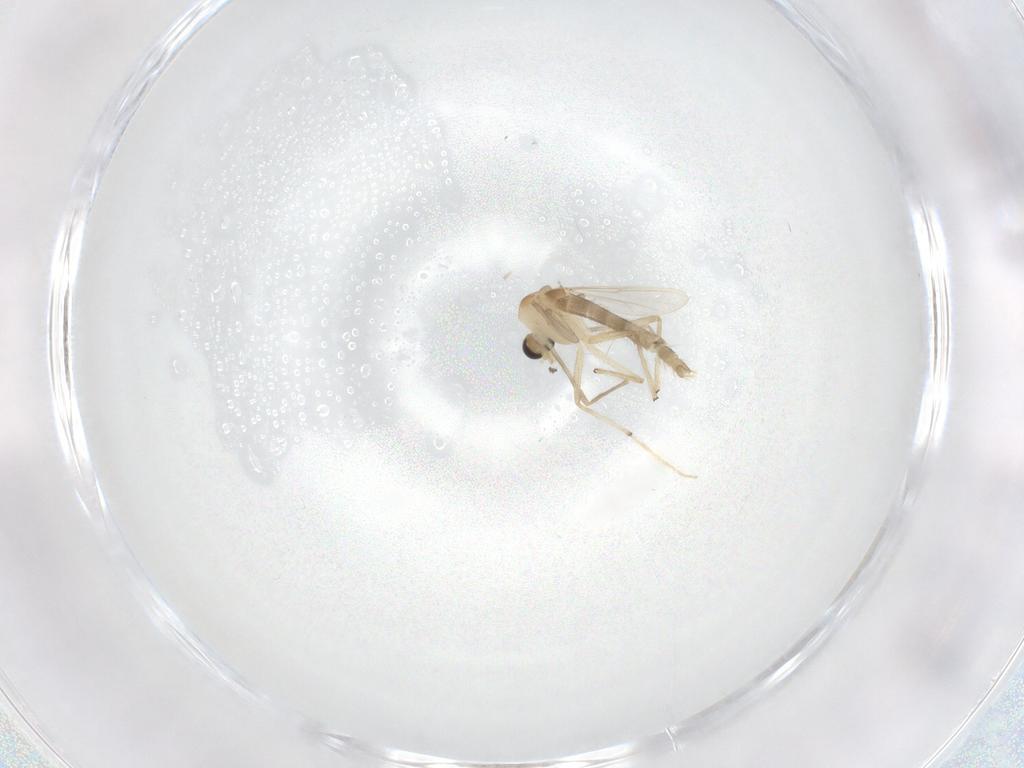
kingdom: Animalia
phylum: Arthropoda
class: Insecta
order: Diptera
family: Chironomidae
